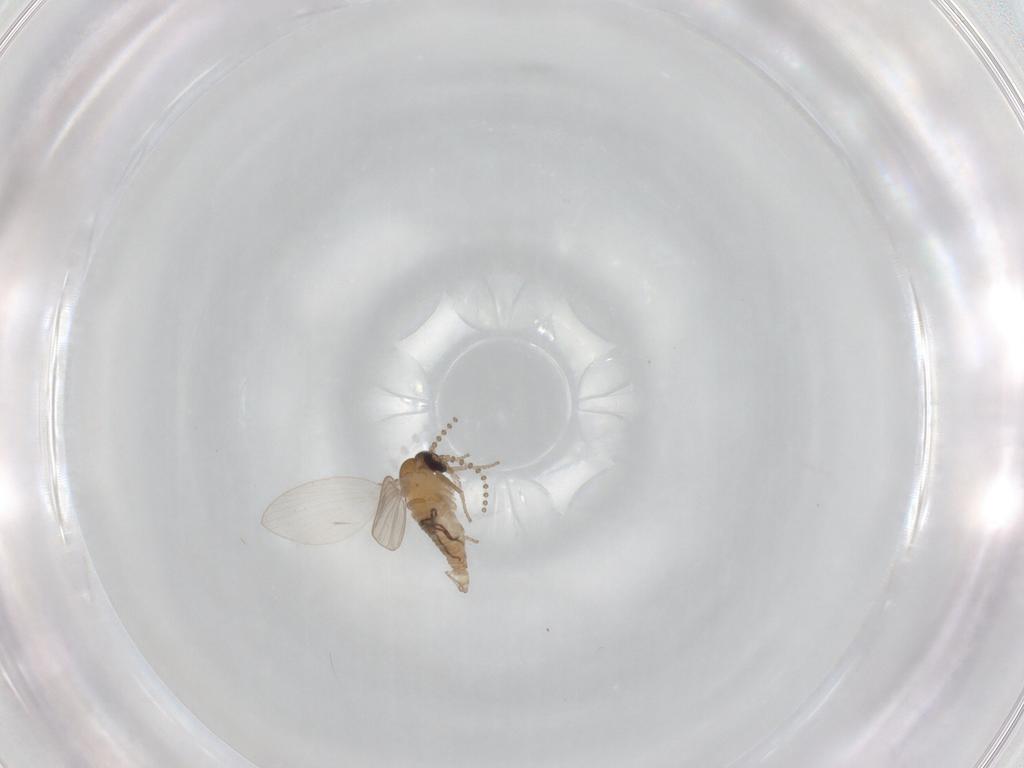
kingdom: Animalia
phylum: Arthropoda
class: Insecta
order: Diptera
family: Psychodidae
